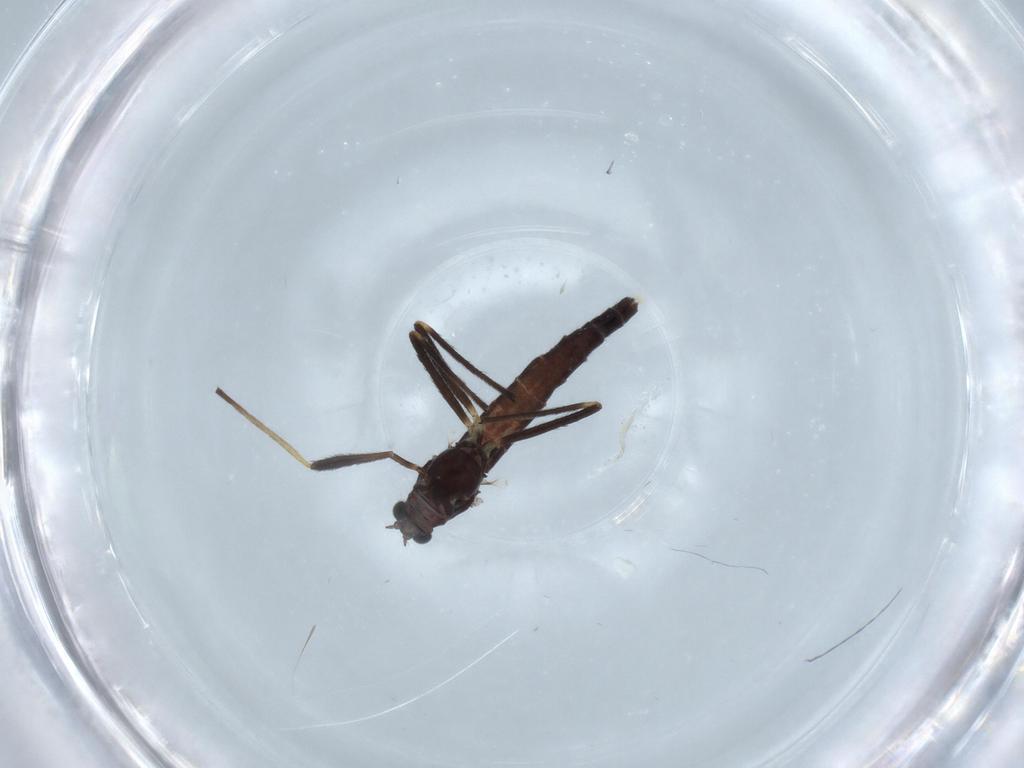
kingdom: Animalia
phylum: Arthropoda
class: Insecta
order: Diptera
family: Chironomidae
